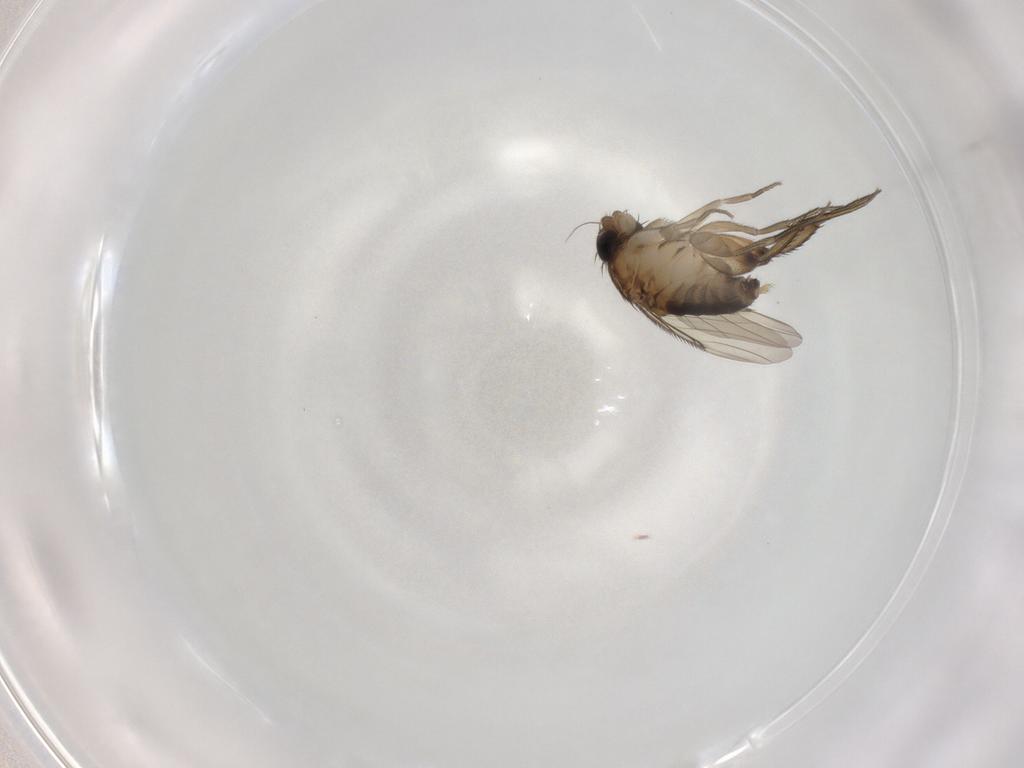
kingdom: Animalia
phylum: Arthropoda
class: Insecta
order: Diptera
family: Phoridae
